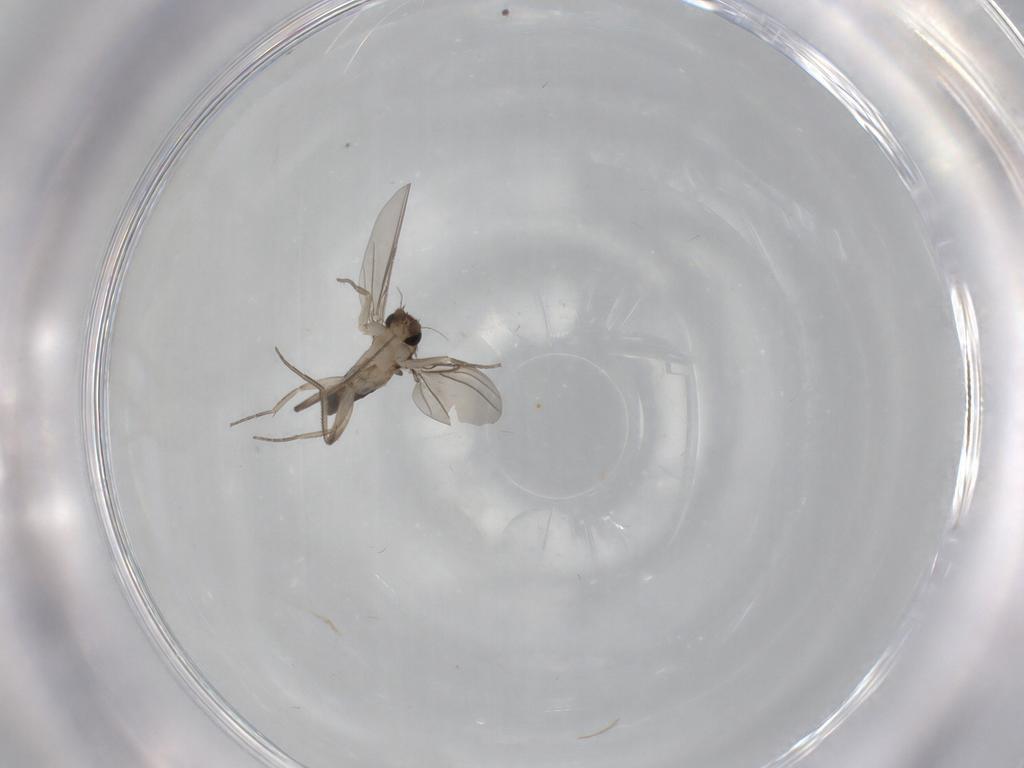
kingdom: Animalia
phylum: Arthropoda
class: Insecta
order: Diptera
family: Phoridae
